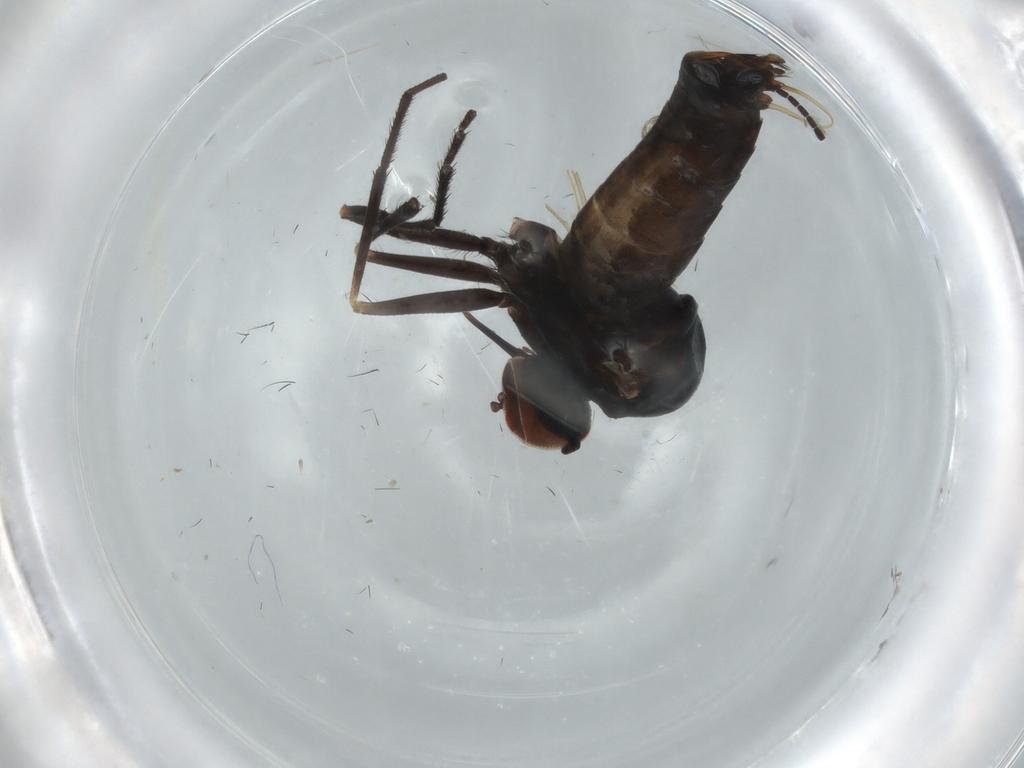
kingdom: Animalia
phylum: Arthropoda
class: Insecta
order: Diptera
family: Empididae
